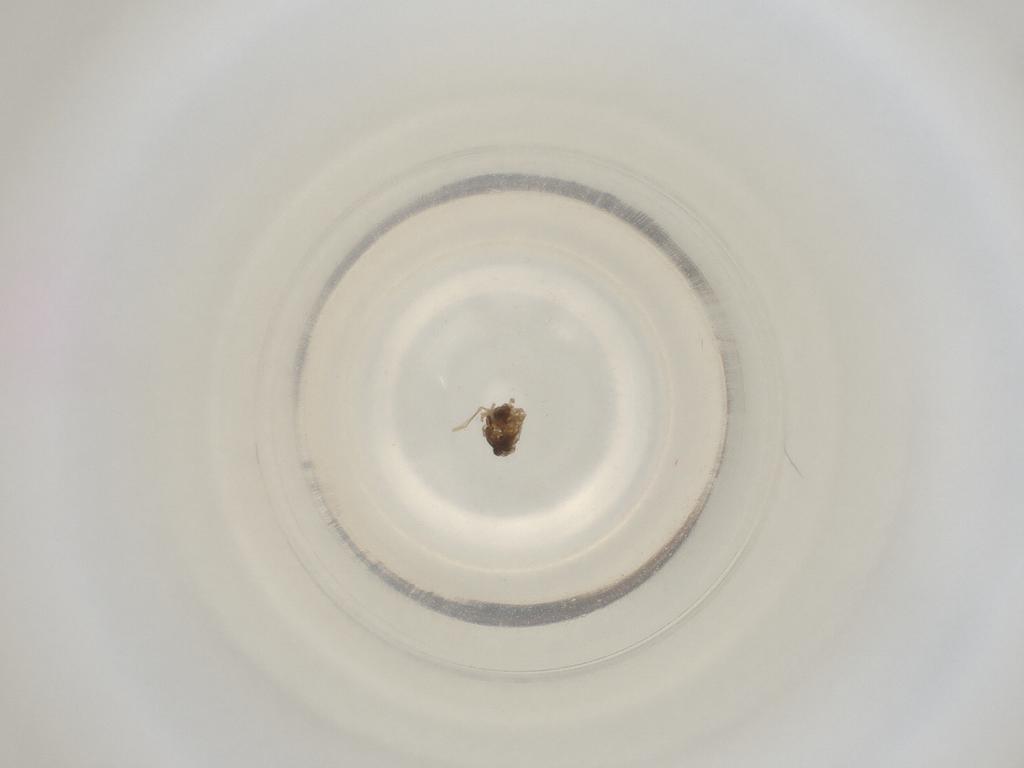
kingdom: Animalia
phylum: Arthropoda
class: Insecta
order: Diptera
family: Cecidomyiidae
